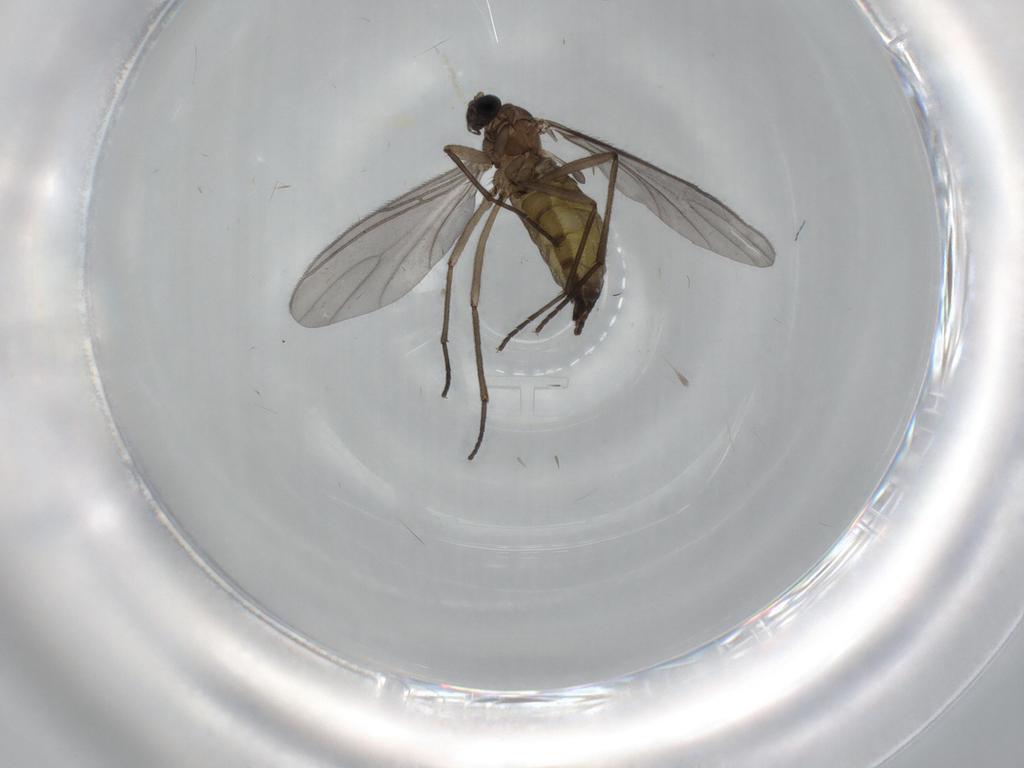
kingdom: Animalia
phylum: Arthropoda
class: Insecta
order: Diptera
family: Sciaridae
